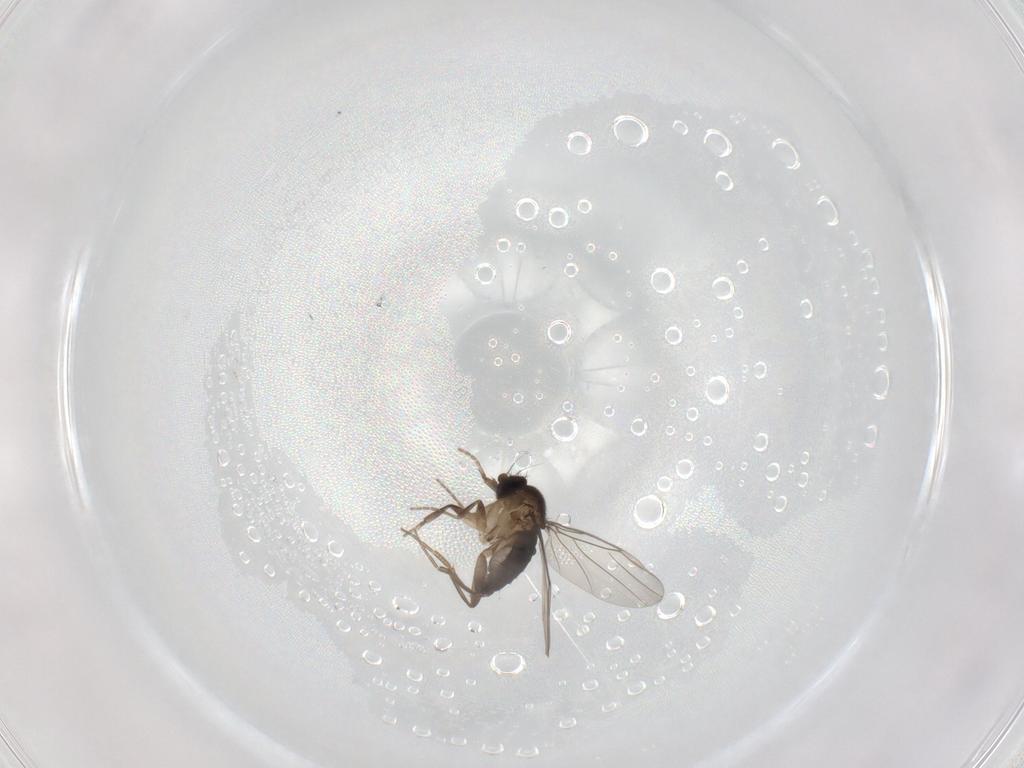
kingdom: Animalia
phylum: Arthropoda
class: Insecta
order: Diptera
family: Phoridae
